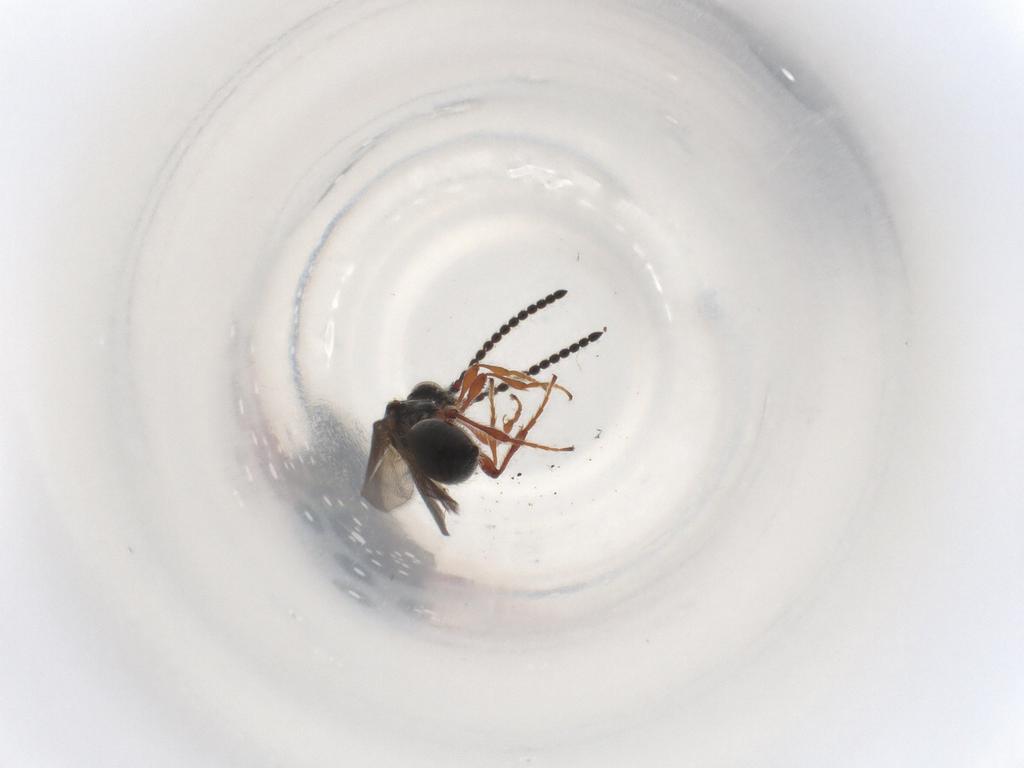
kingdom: Animalia
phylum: Arthropoda
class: Insecta
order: Hymenoptera
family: Diapriidae
